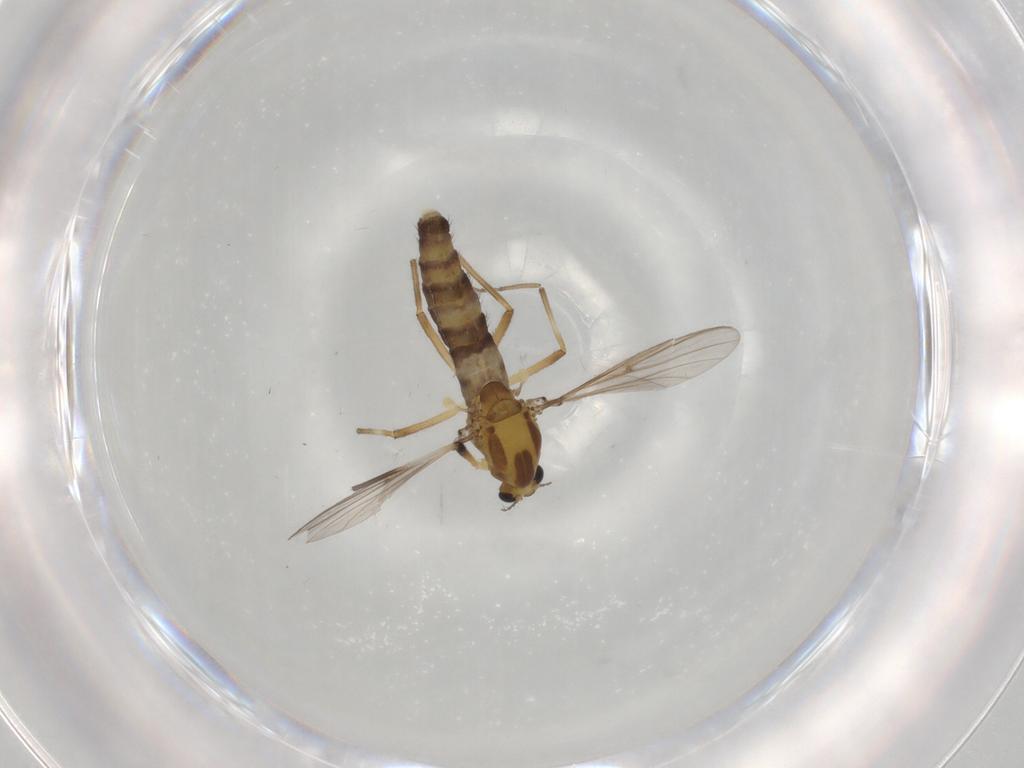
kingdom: Animalia
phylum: Arthropoda
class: Insecta
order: Diptera
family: Chironomidae
